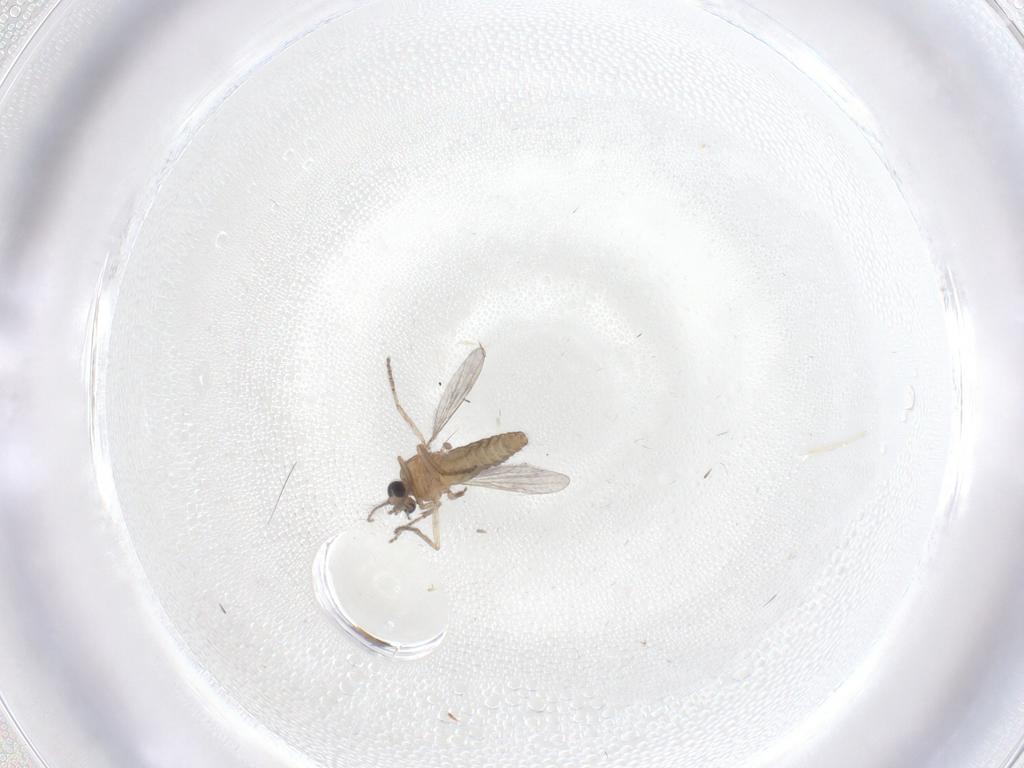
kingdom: Animalia
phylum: Arthropoda
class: Insecta
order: Diptera
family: Ceratopogonidae
